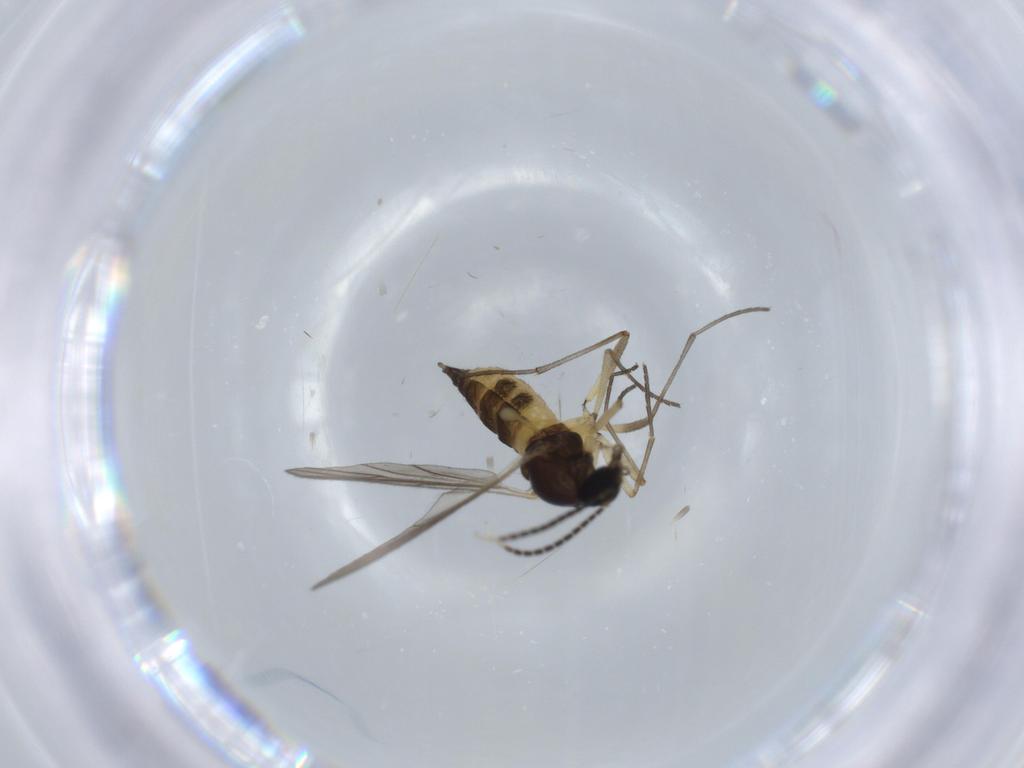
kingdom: Animalia
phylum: Arthropoda
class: Insecta
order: Diptera
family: Sciaridae
